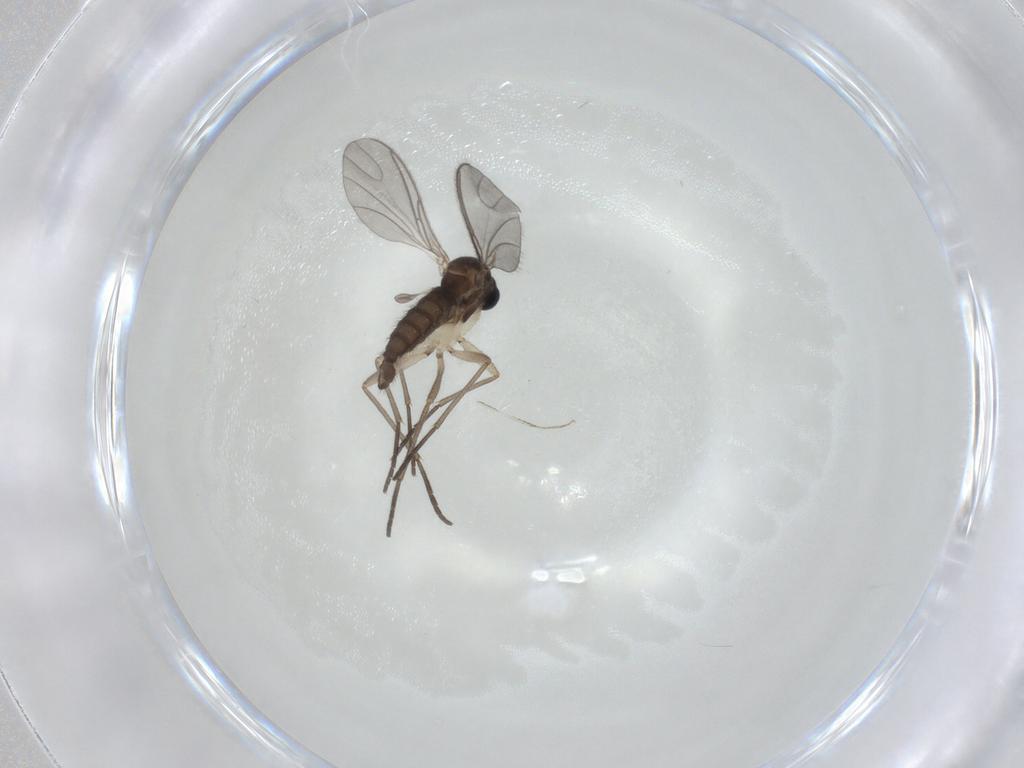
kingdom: Animalia
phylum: Arthropoda
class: Insecta
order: Diptera
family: Sciaridae
